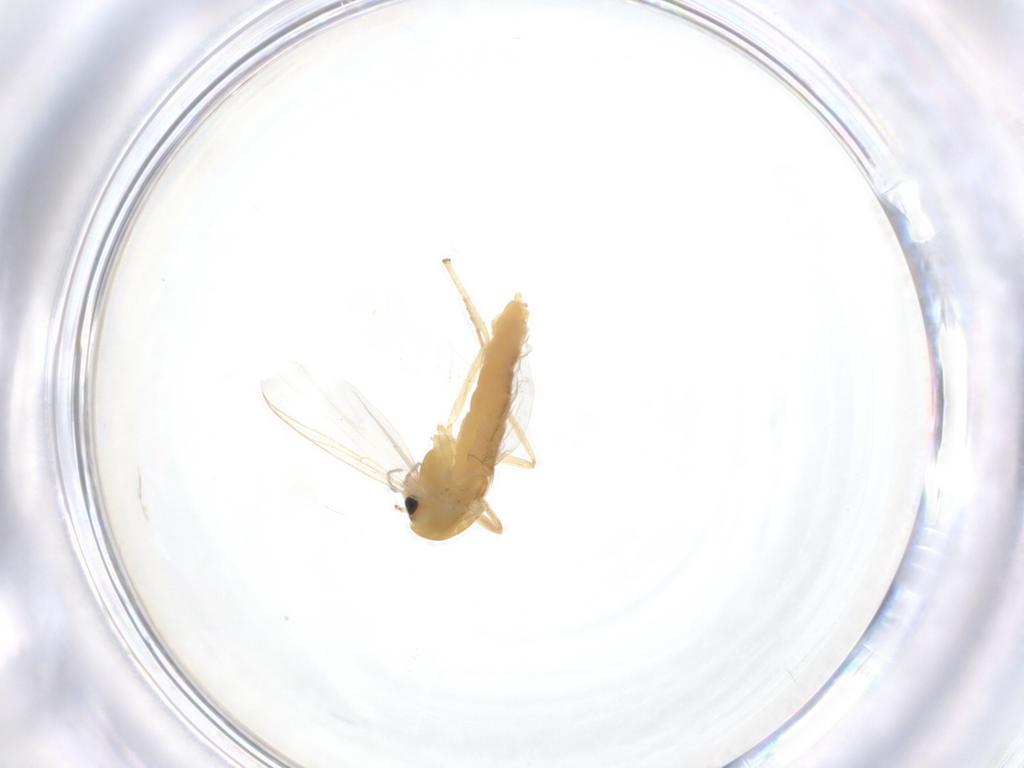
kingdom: Animalia
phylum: Arthropoda
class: Insecta
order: Diptera
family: Chironomidae
